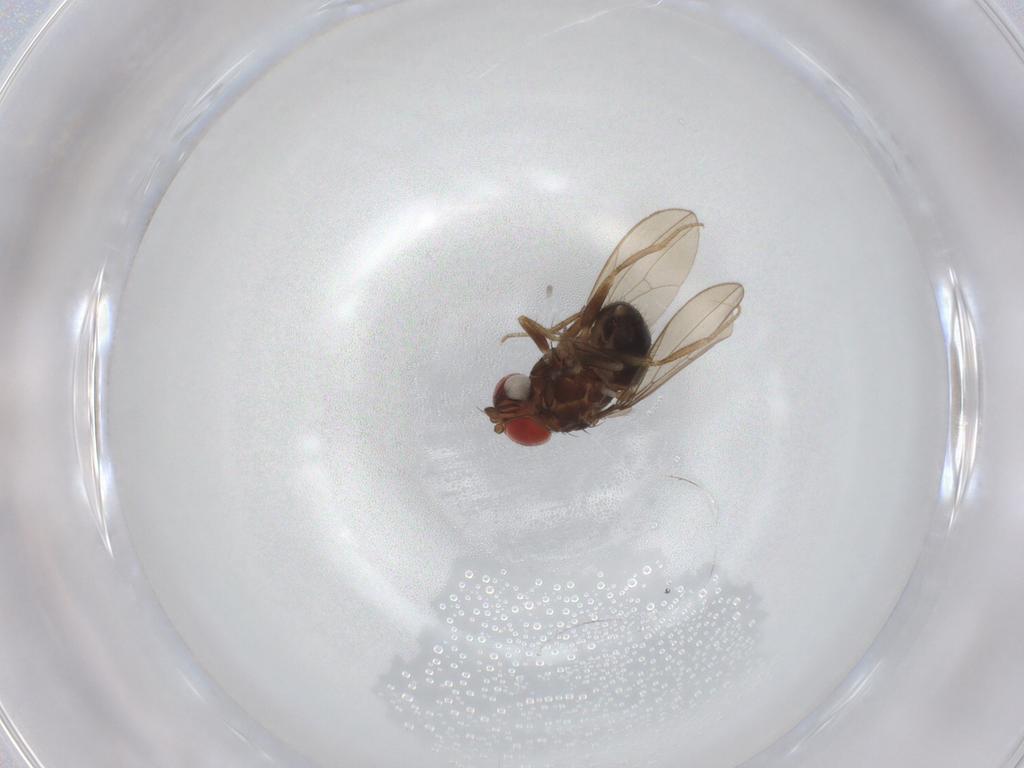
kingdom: Animalia
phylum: Arthropoda
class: Insecta
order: Diptera
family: Drosophilidae
